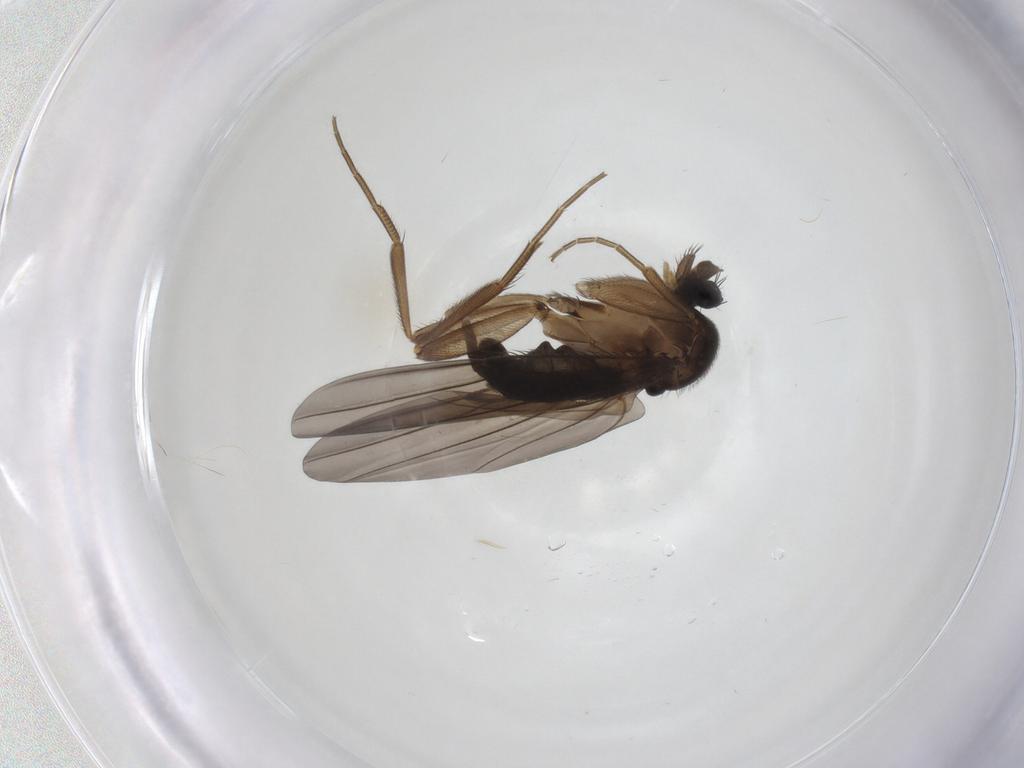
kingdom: Animalia
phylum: Arthropoda
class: Insecta
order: Diptera
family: Phoridae
